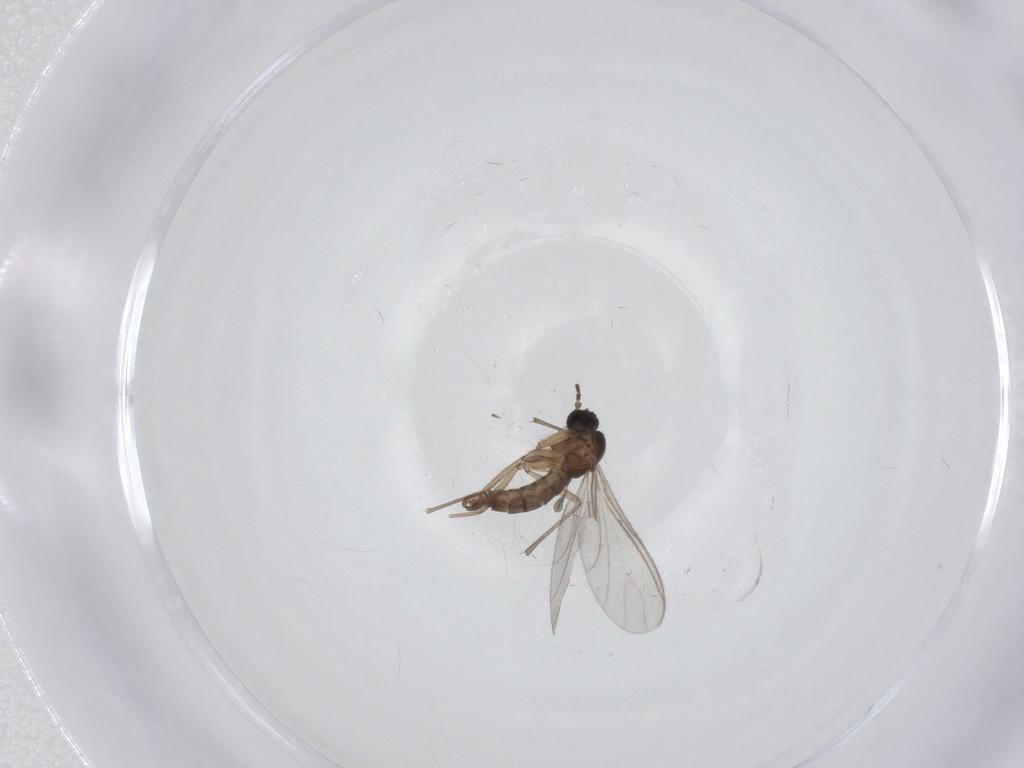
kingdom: Animalia
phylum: Arthropoda
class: Insecta
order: Diptera
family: Sciaridae
